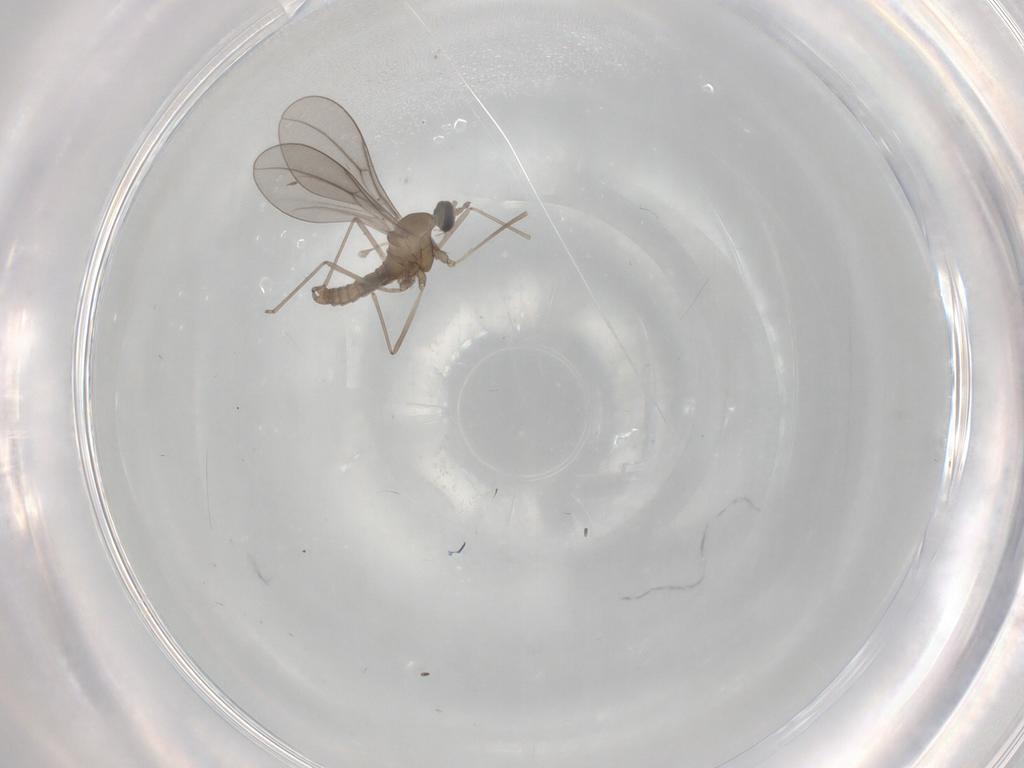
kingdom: Animalia
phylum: Arthropoda
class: Insecta
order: Diptera
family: Cecidomyiidae
